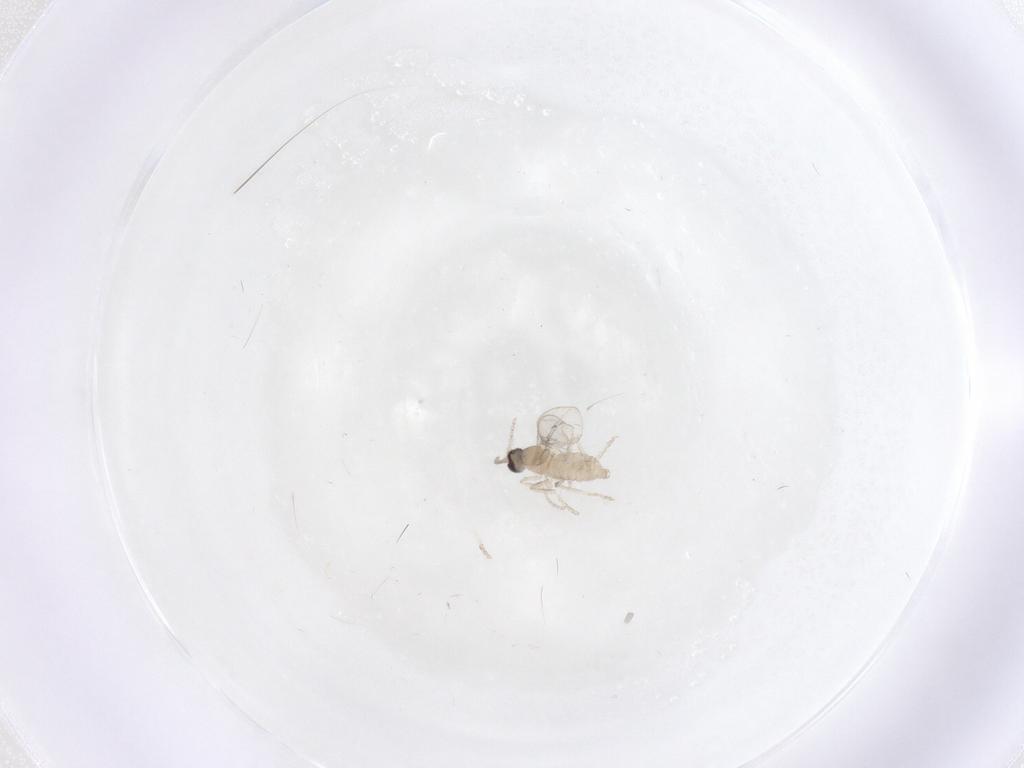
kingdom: Animalia
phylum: Arthropoda
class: Insecta
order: Diptera
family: Cecidomyiidae
